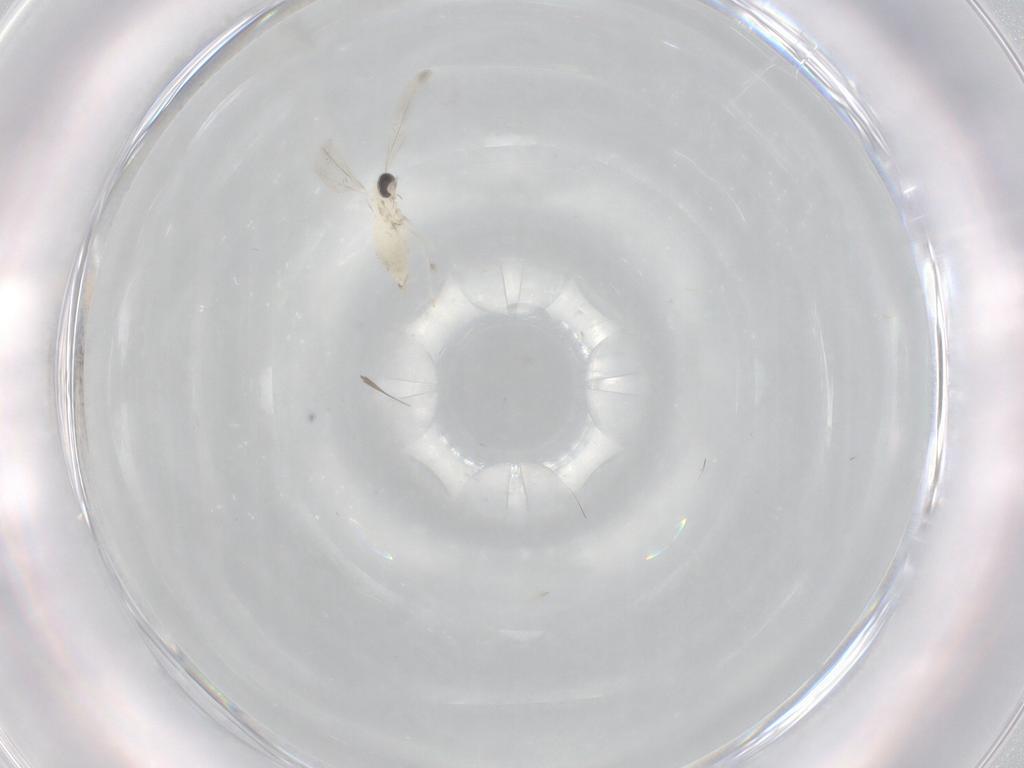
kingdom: Animalia
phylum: Arthropoda
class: Insecta
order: Diptera
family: Cecidomyiidae
